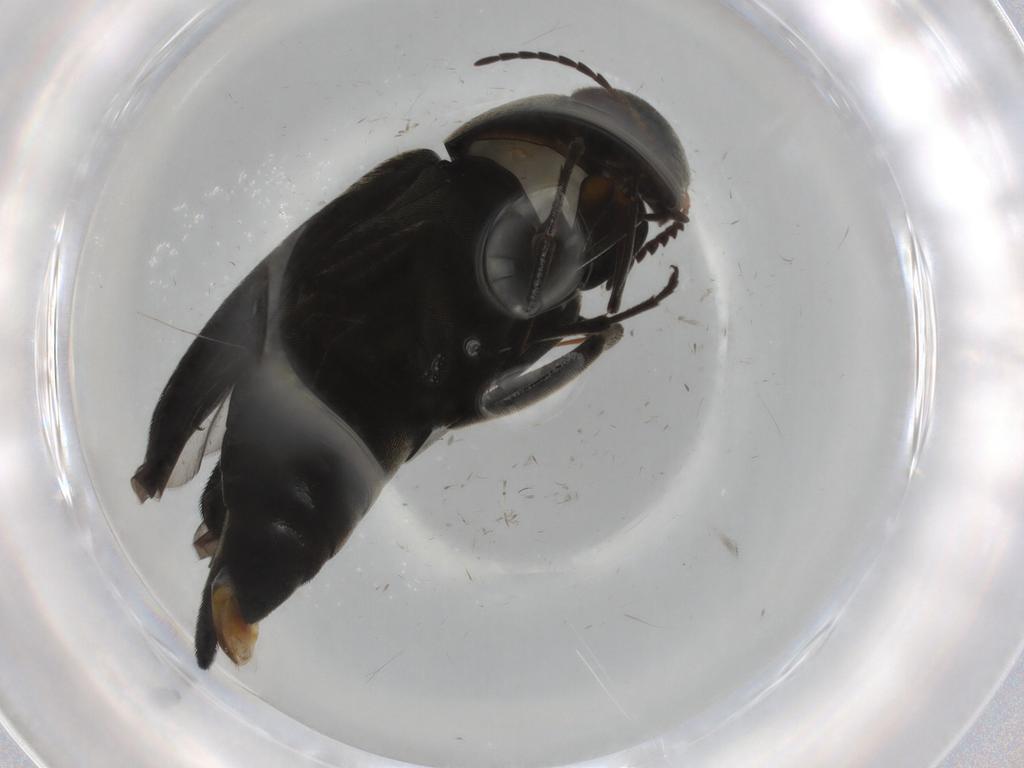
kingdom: Animalia
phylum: Arthropoda
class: Insecta
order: Coleoptera
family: Mordellidae
